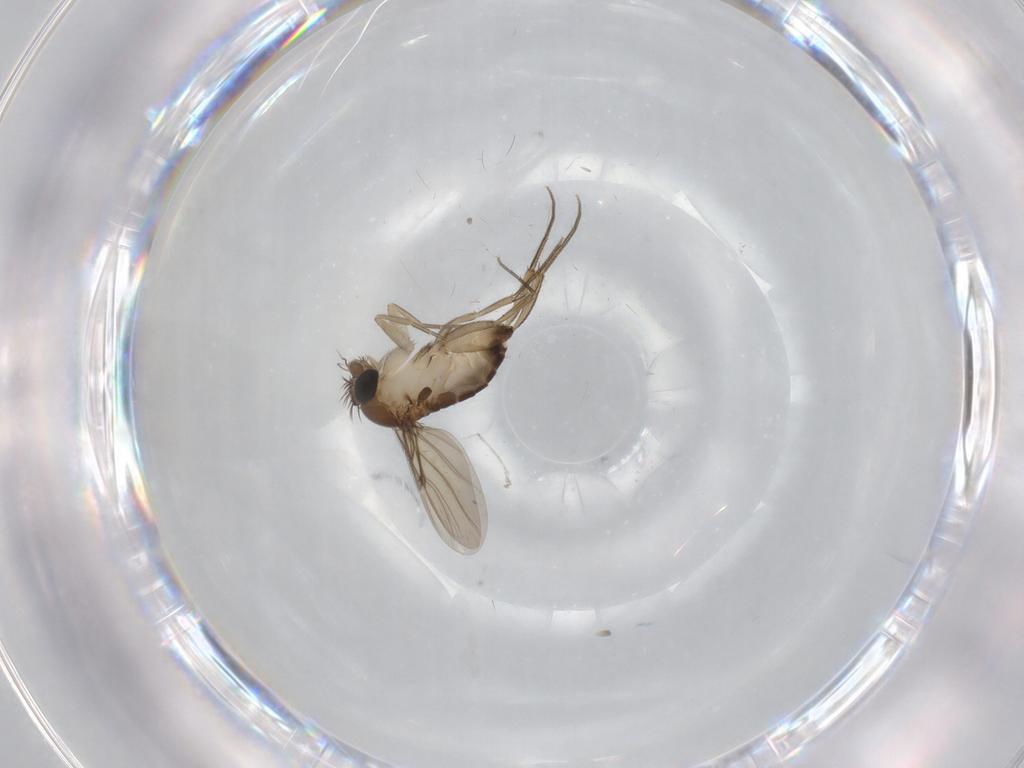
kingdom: Animalia
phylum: Arthropoda
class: Insecta
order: Diptera
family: Phoridae
